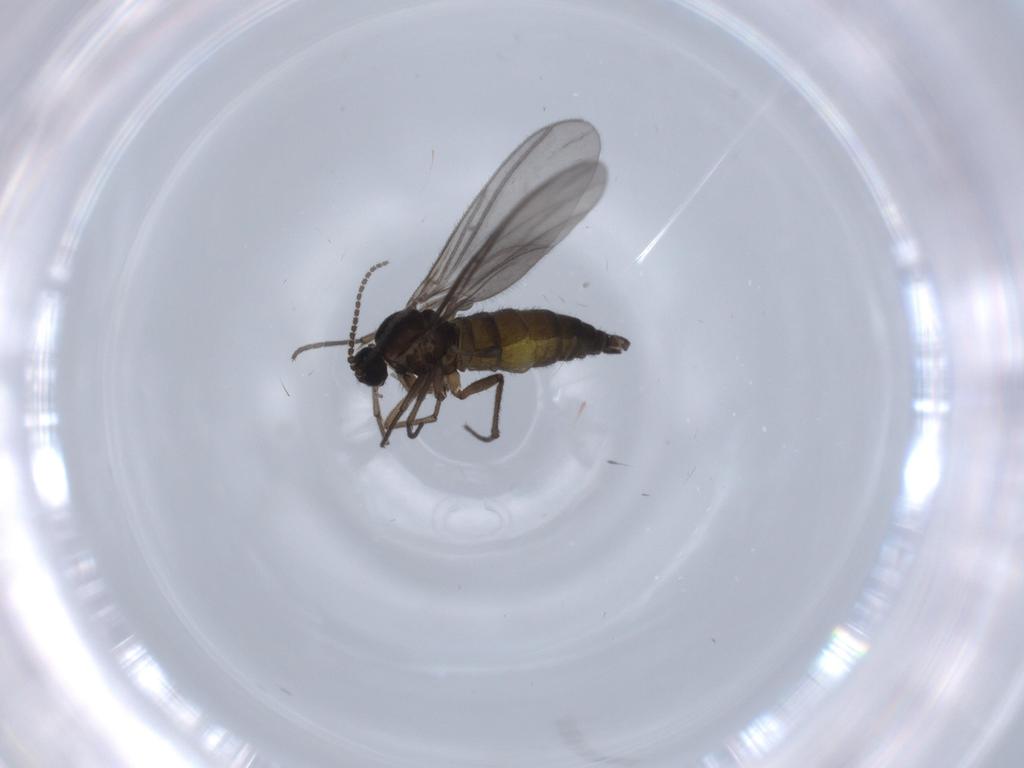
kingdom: Animalia
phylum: Arthropoda
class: Insecta
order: Diptera
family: Sciaridae
